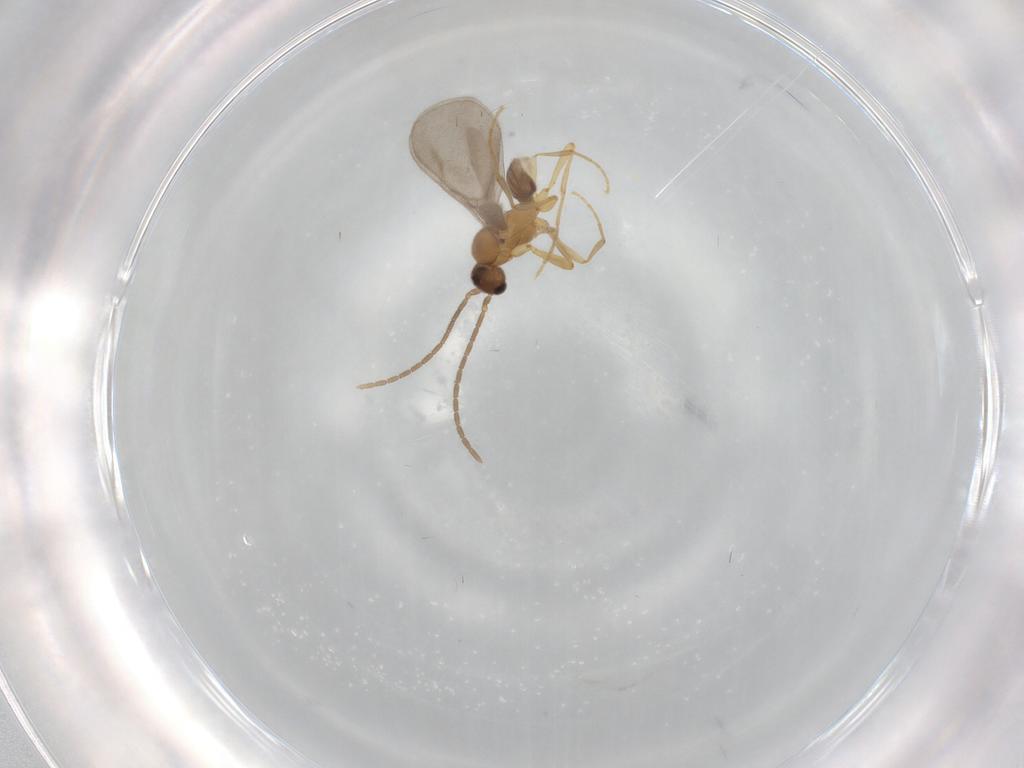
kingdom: Animalia
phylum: Arthropoda
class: Insecta
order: Hymenoptera
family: Formicidae
